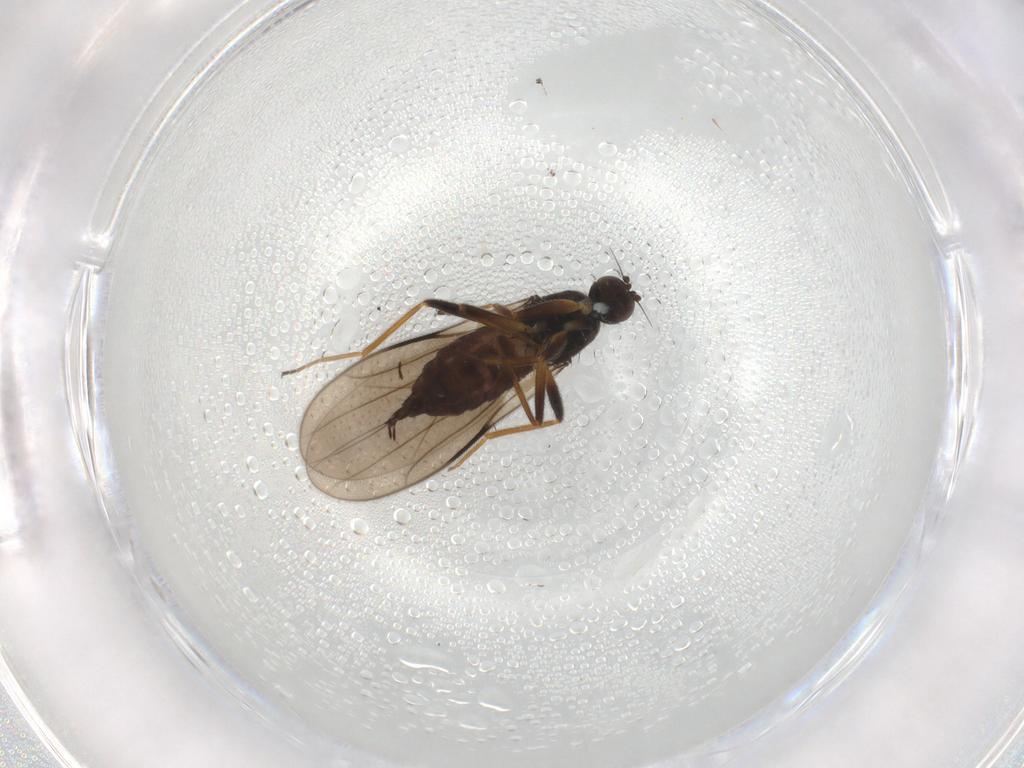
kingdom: Animalia
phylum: Arthropoda
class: Insecta
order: Diptera
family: Hybotidae
